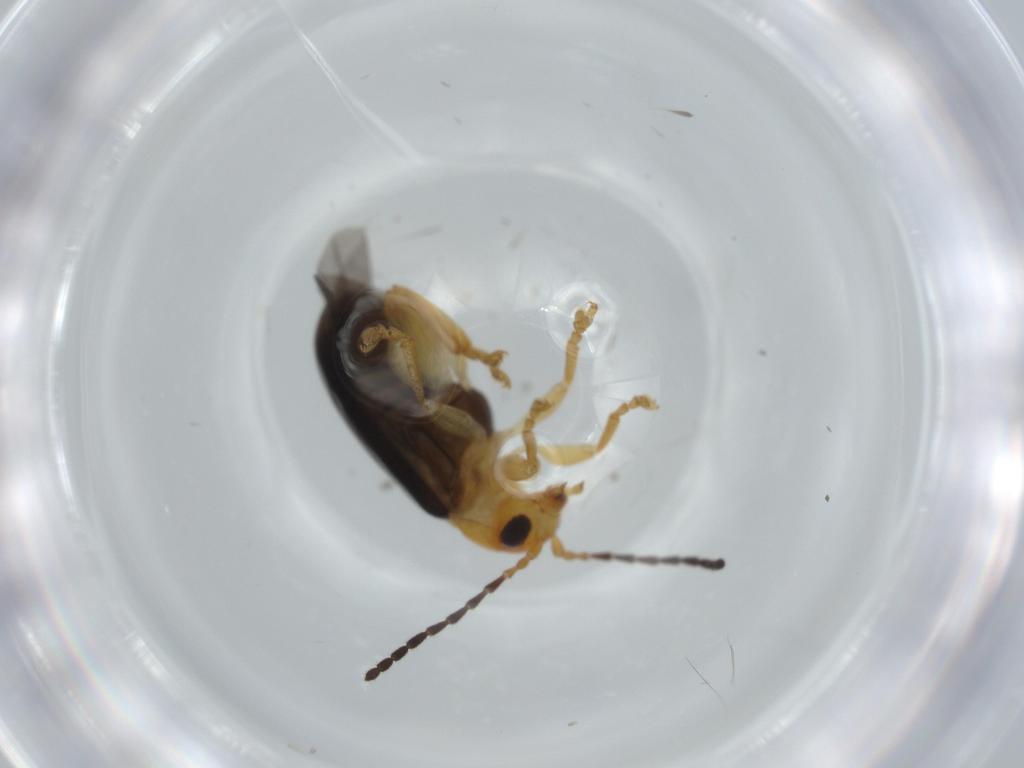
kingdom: Animalia
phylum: Arthropoda
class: Insecta
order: Coleoptera
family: Chrysomelidae
